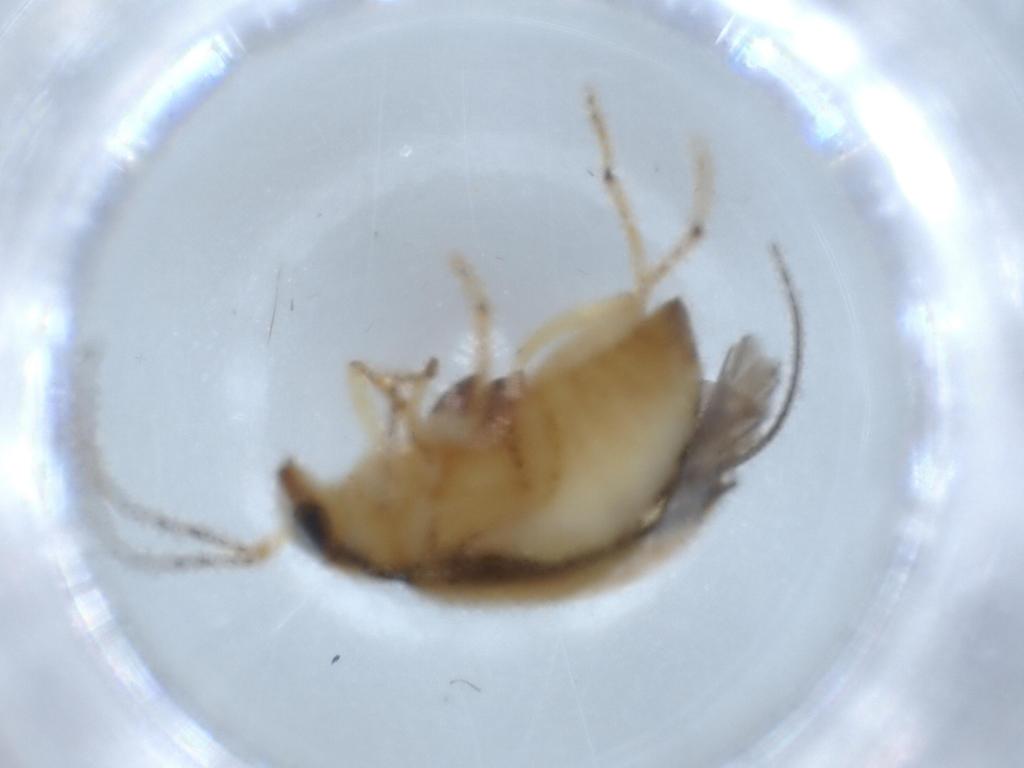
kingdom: Animalia
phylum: Arthropoda
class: Insecta
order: Coleoptera
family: Chrysomelidae
